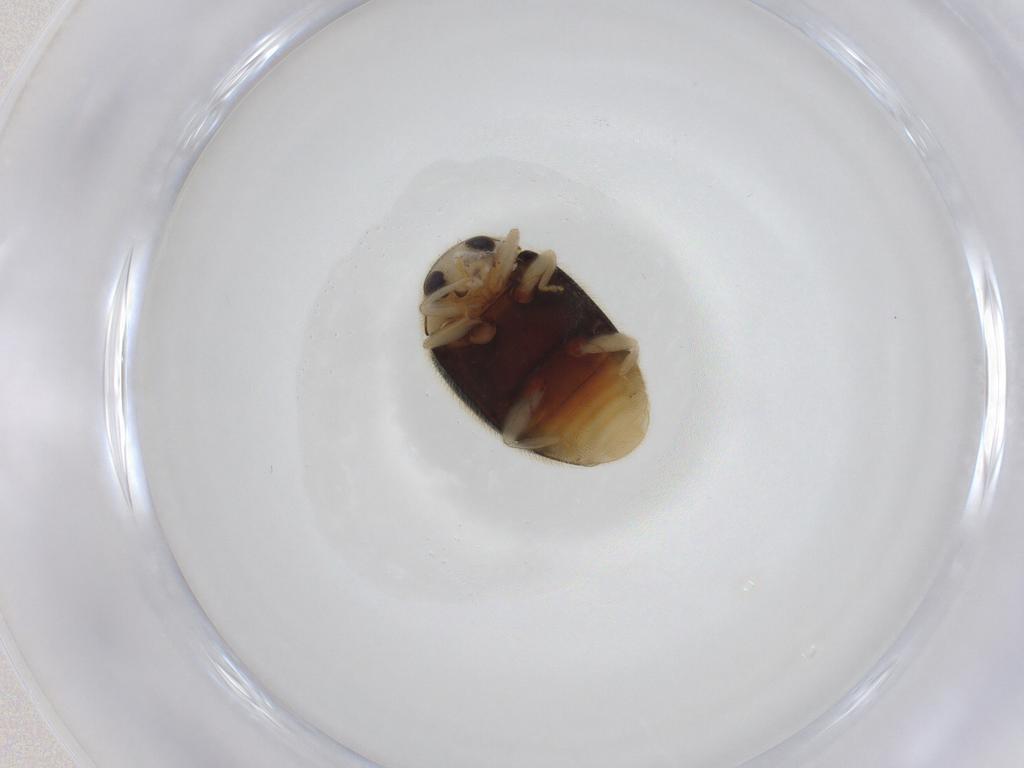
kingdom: Animalia
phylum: Arthropoda
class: Insecta
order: Coleoptera
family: Coccinellidae
